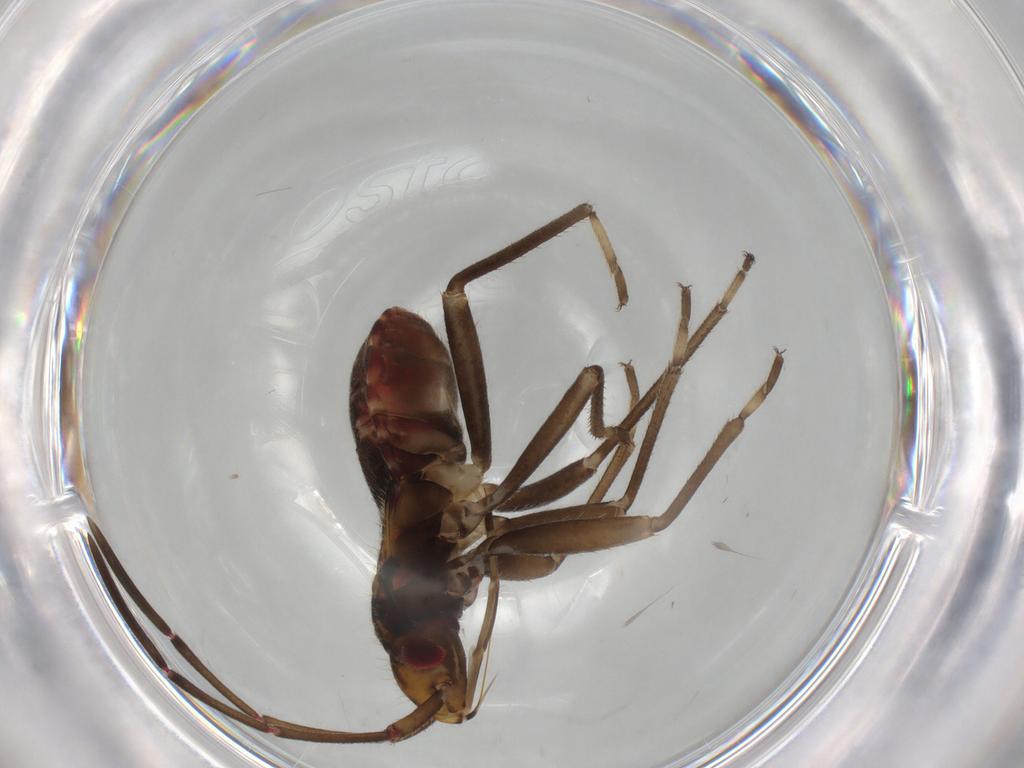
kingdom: Animalia
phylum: Arthropoda
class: Insecta
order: Hemiptera
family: Rhyparochromidae
